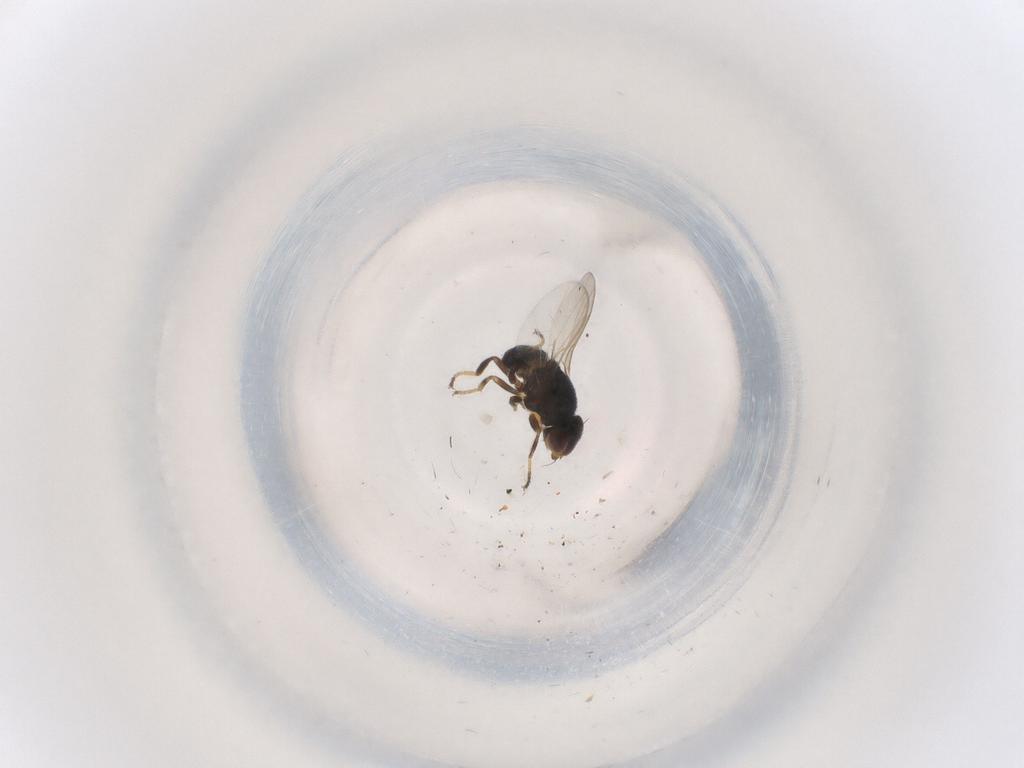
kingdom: Animalia
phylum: Arthropoda
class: Insecta
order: Diptera
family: Chloropidae
